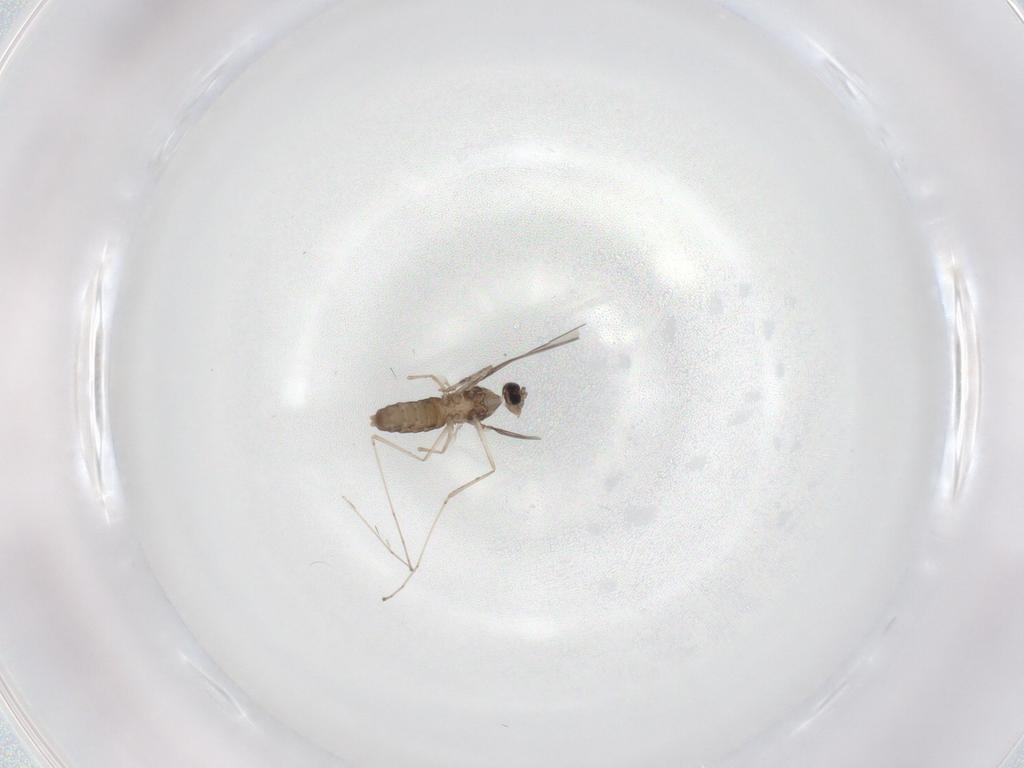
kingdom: Animalia
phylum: Arthropoda
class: Insecta
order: Diptera
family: Cecidomyiidae
